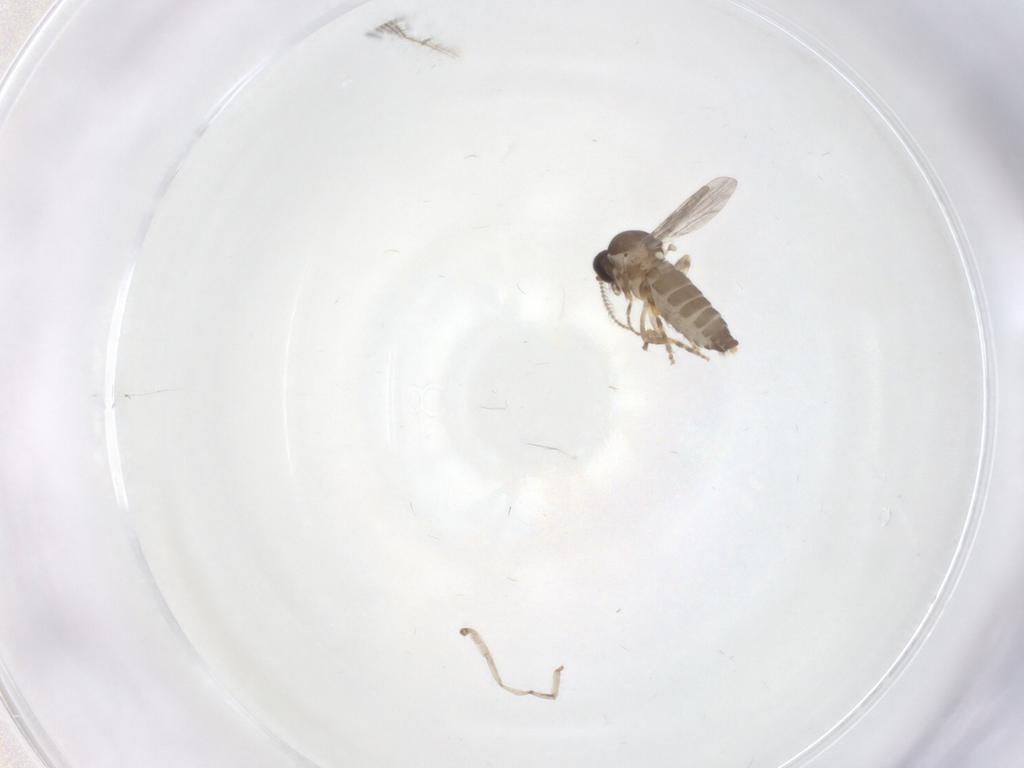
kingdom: Animalia
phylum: Arthropoda
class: Insecta
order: Diptera
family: Ceratopogonidae
